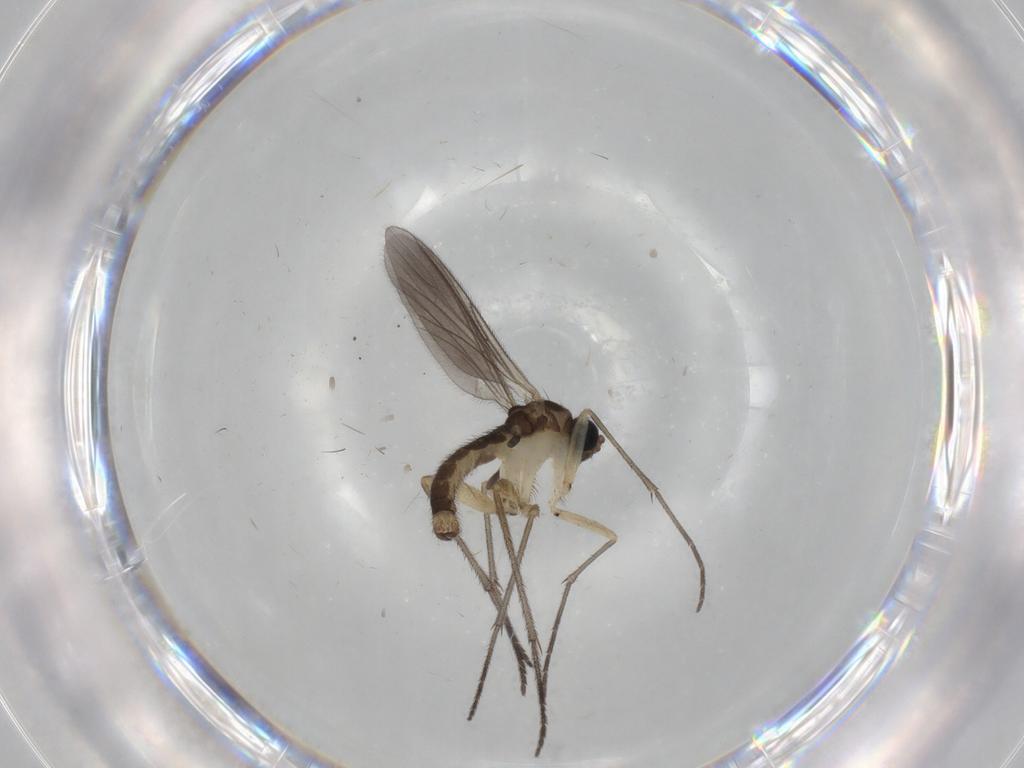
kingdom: Animalia
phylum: Arthropoda
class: Insecta
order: Diptera
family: Sciaridae
